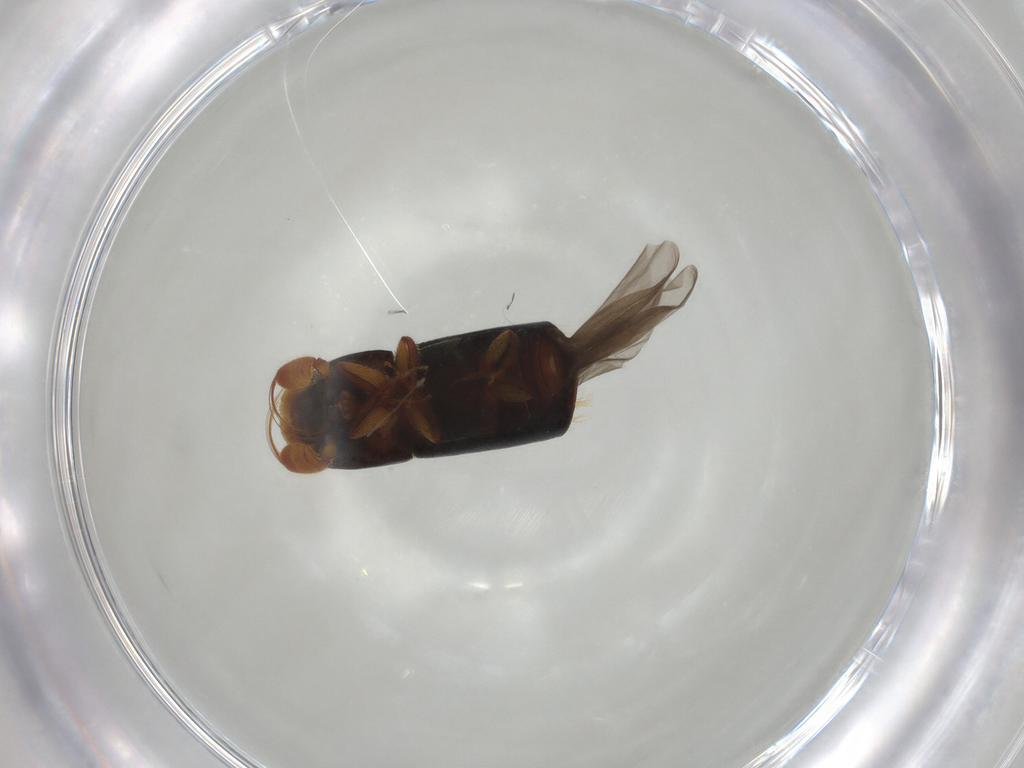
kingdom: Animalia
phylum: Arthropoda
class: Insecta
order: Coleoptera
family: Curculionidae
